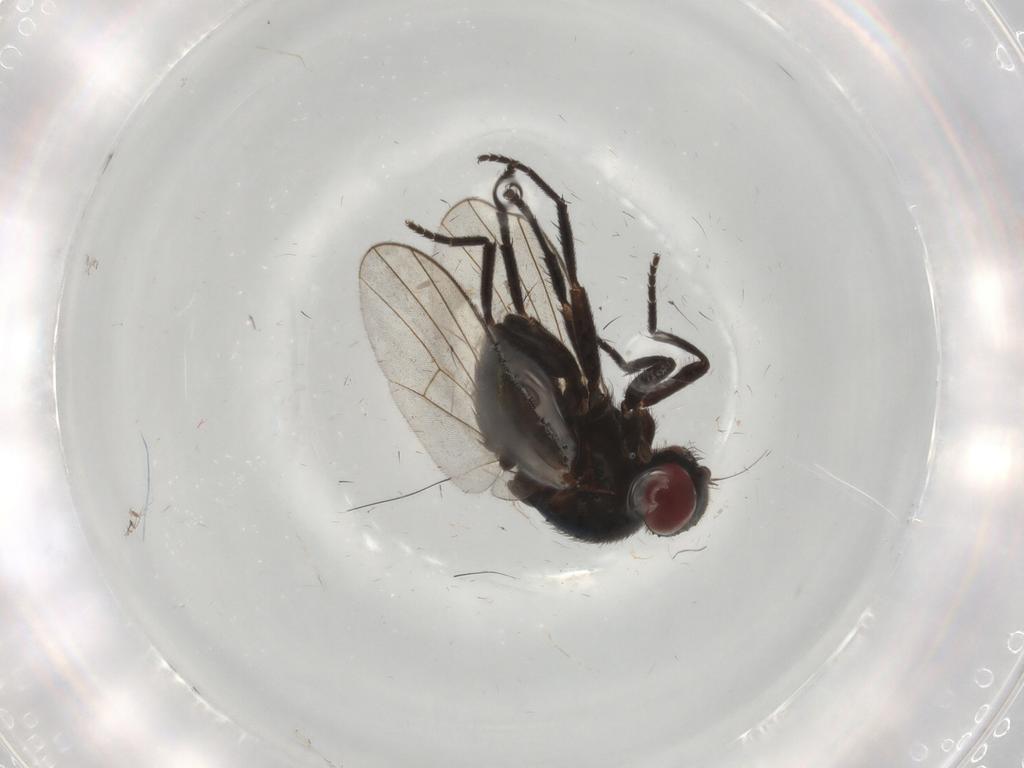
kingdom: Animalia
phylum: Arthropoda
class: Insecta
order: Diptera
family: Agromyzidae
